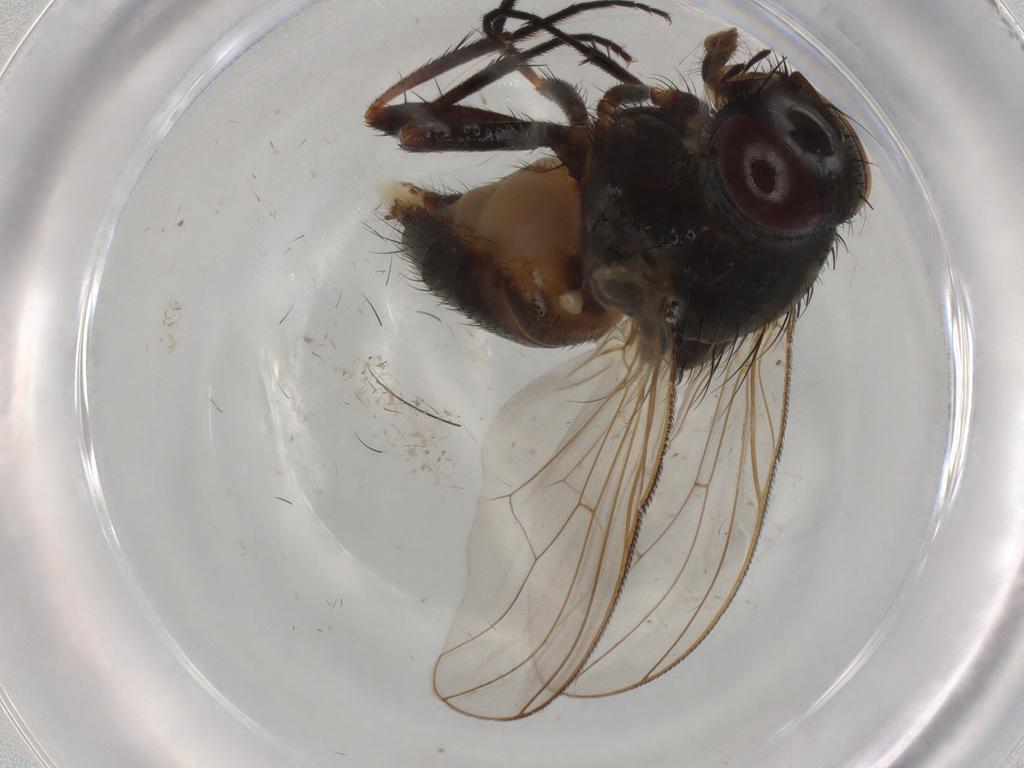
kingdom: Animalia
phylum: Arthropoda
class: Insecta
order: Diptera
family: Fannia
